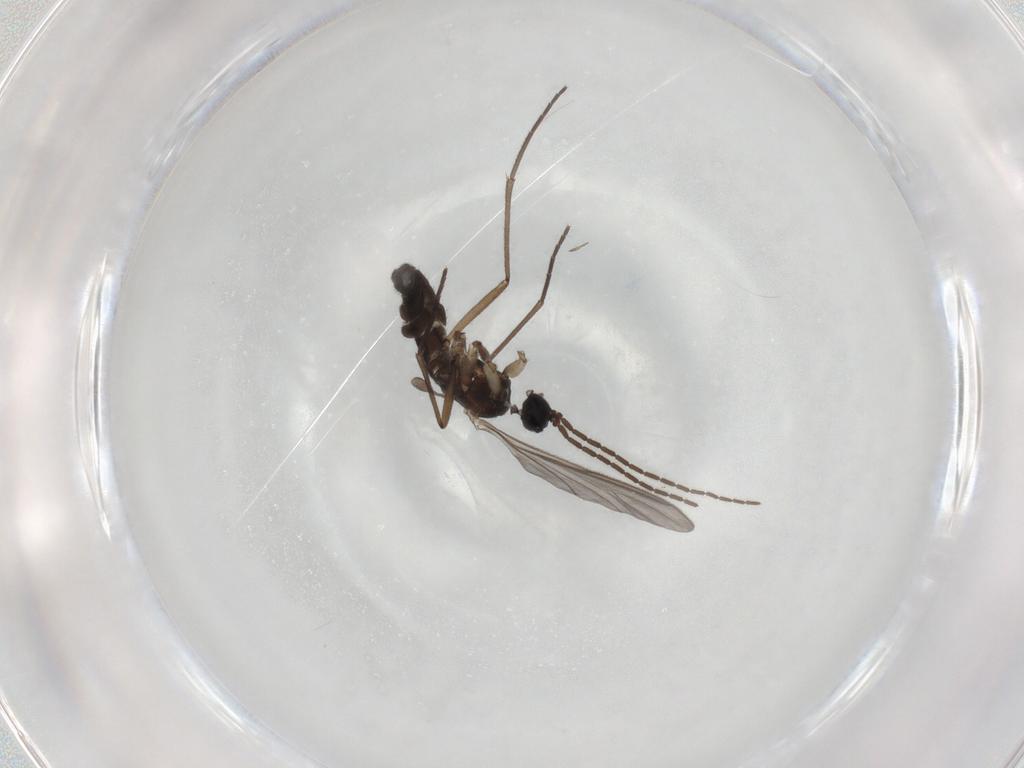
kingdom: Animalia
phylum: Arthropoda
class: Insecta
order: Diptera
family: Sciaridae
